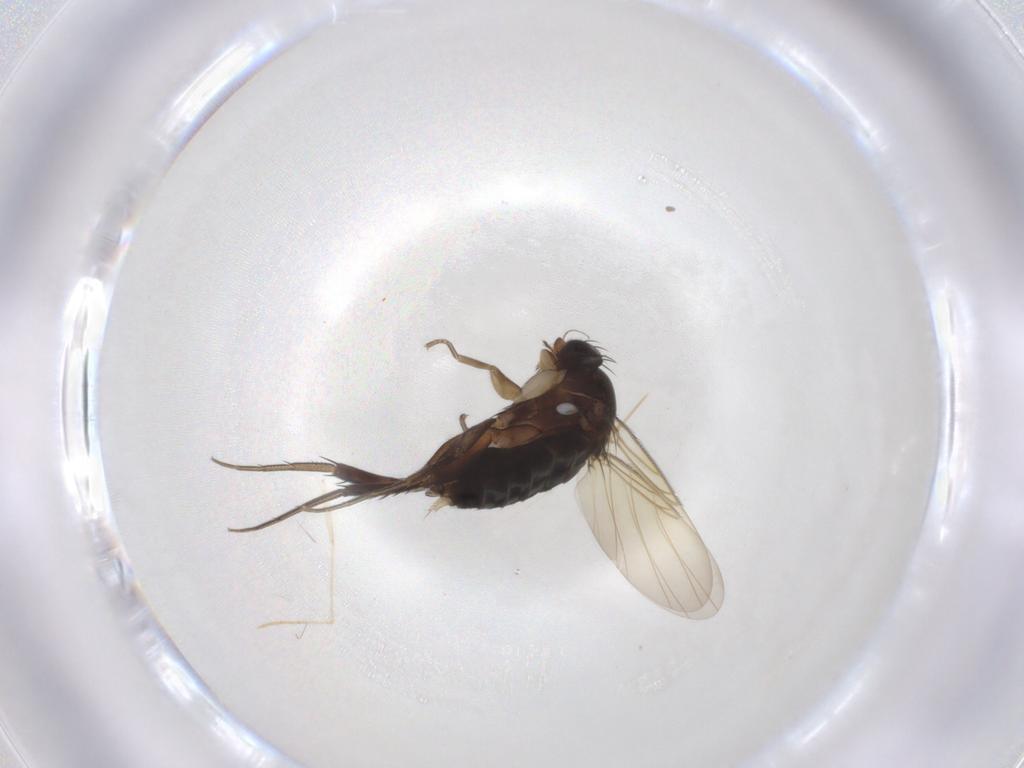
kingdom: Animalia
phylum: Arthropoda
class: Insecta
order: Diptera
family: Phoridae
